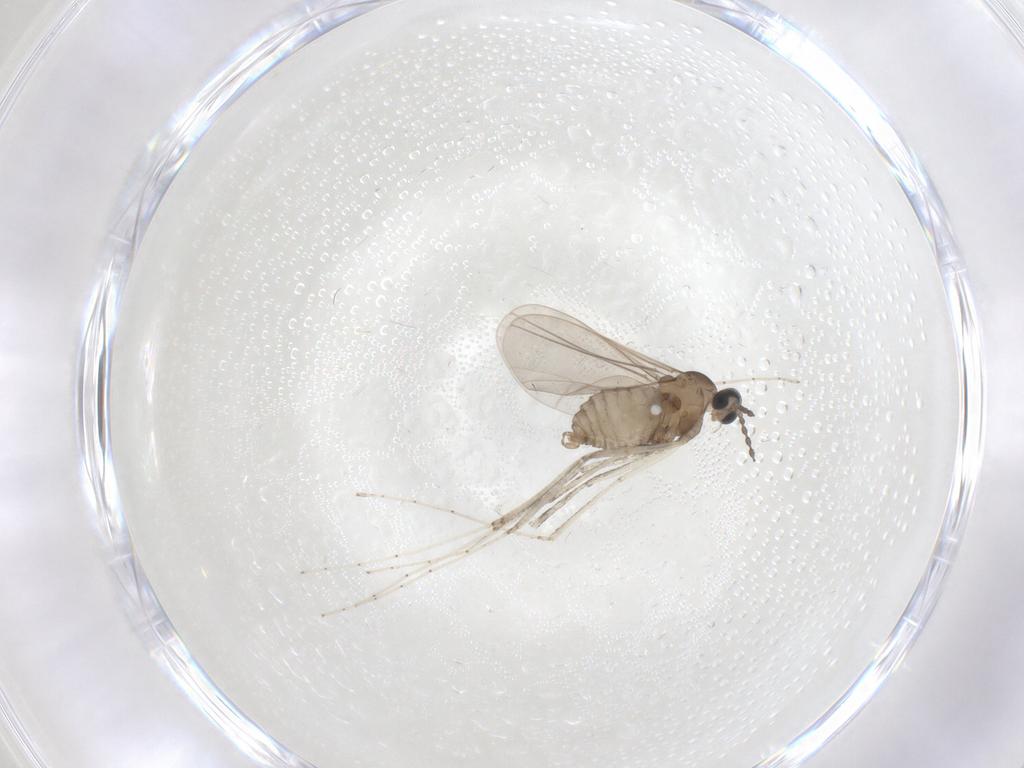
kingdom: Animalia
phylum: Arthropoda
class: Insecta
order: Diptera
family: Cecidomyiidae
